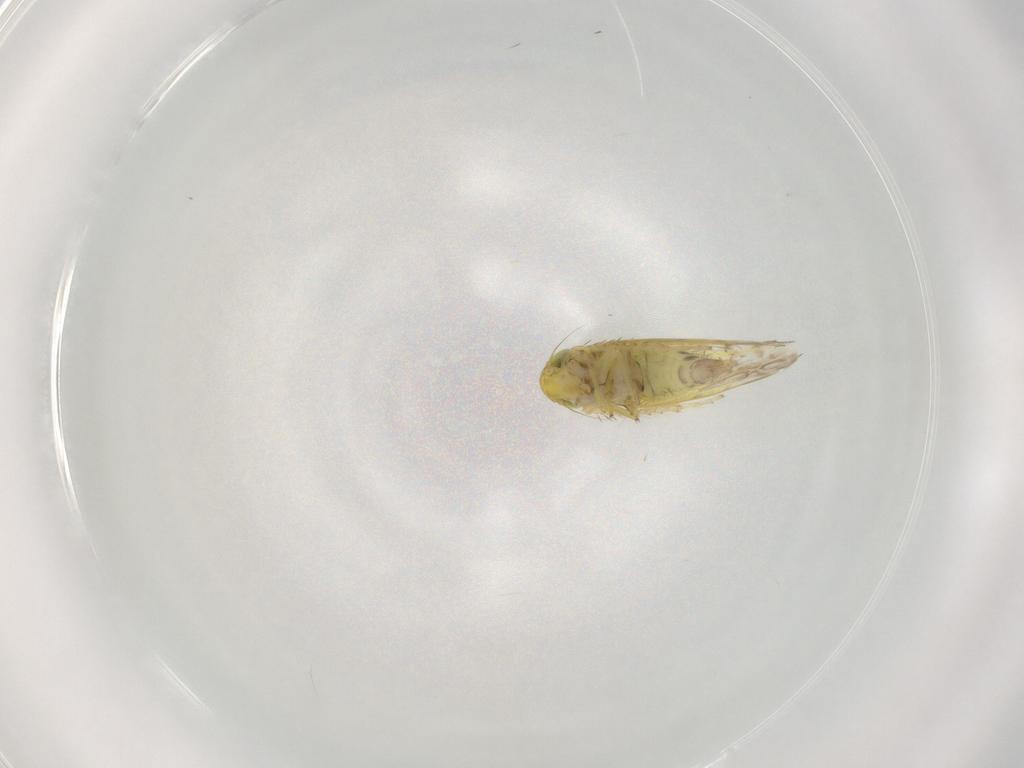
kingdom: Animalia
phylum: Arthropoda
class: Insecta
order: Hemiptera
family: Cicadellidae
